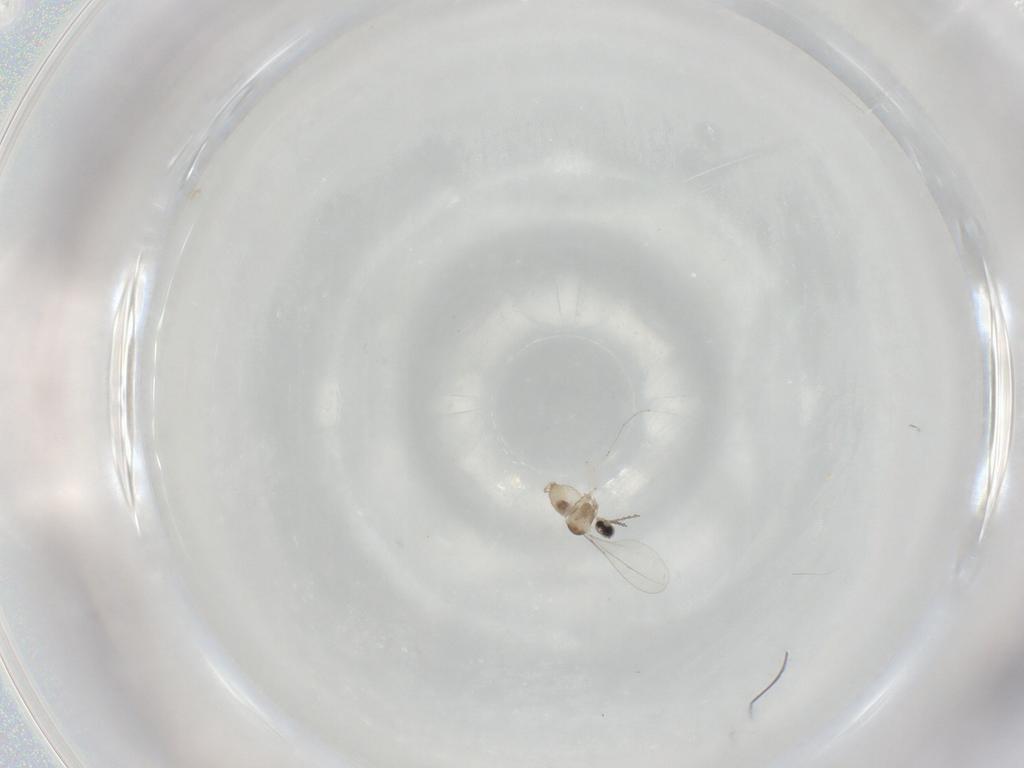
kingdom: Animalia
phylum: Arthropoda
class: Insecta
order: Diptera
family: Cecidomyiidae
